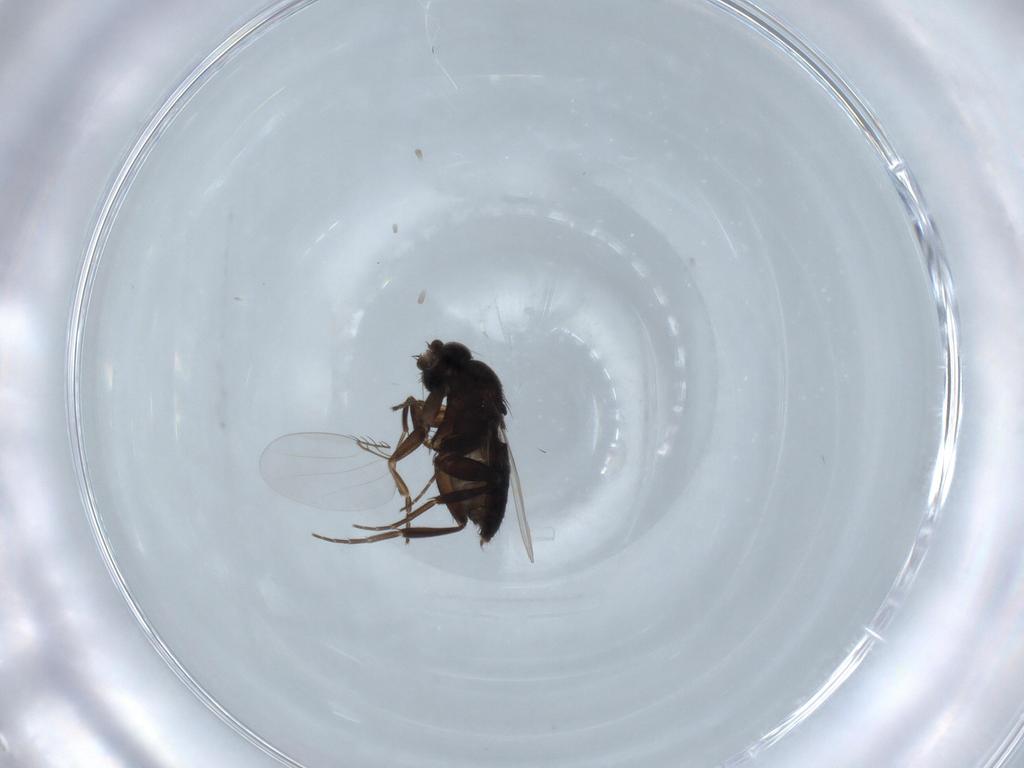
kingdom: Animalia
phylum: Arthropoda
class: Insecta
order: Diptera
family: Phoridae
